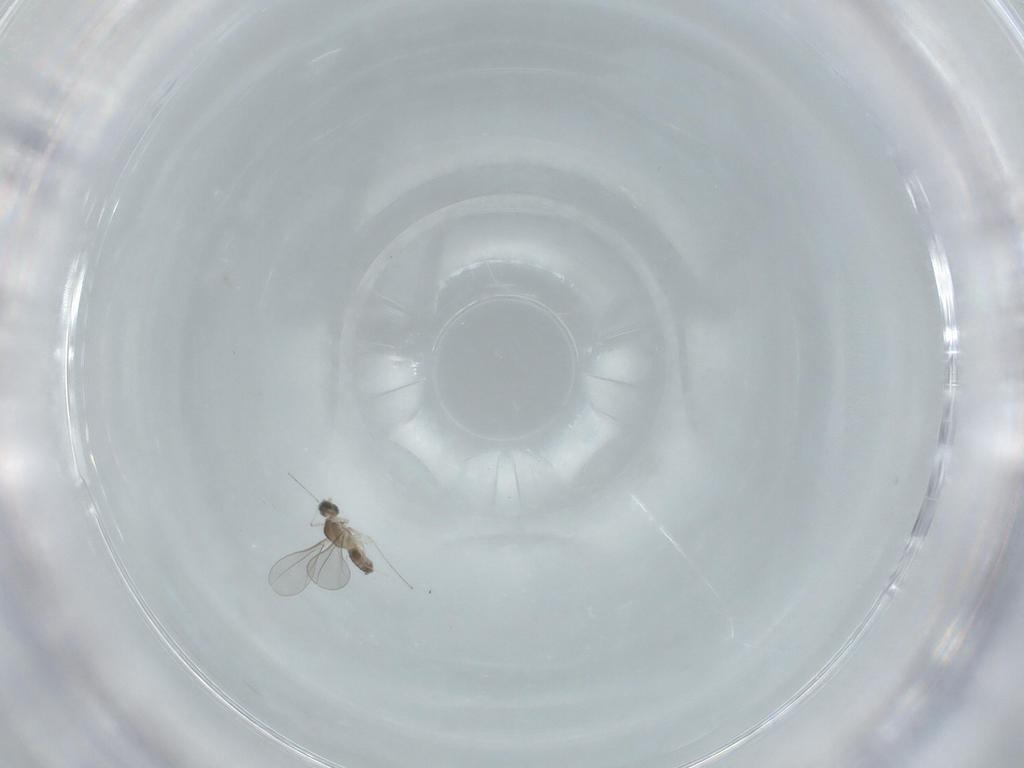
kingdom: Animalia
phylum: Arthropoda
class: Insecta
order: Diptera
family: Cecidomyiidae
